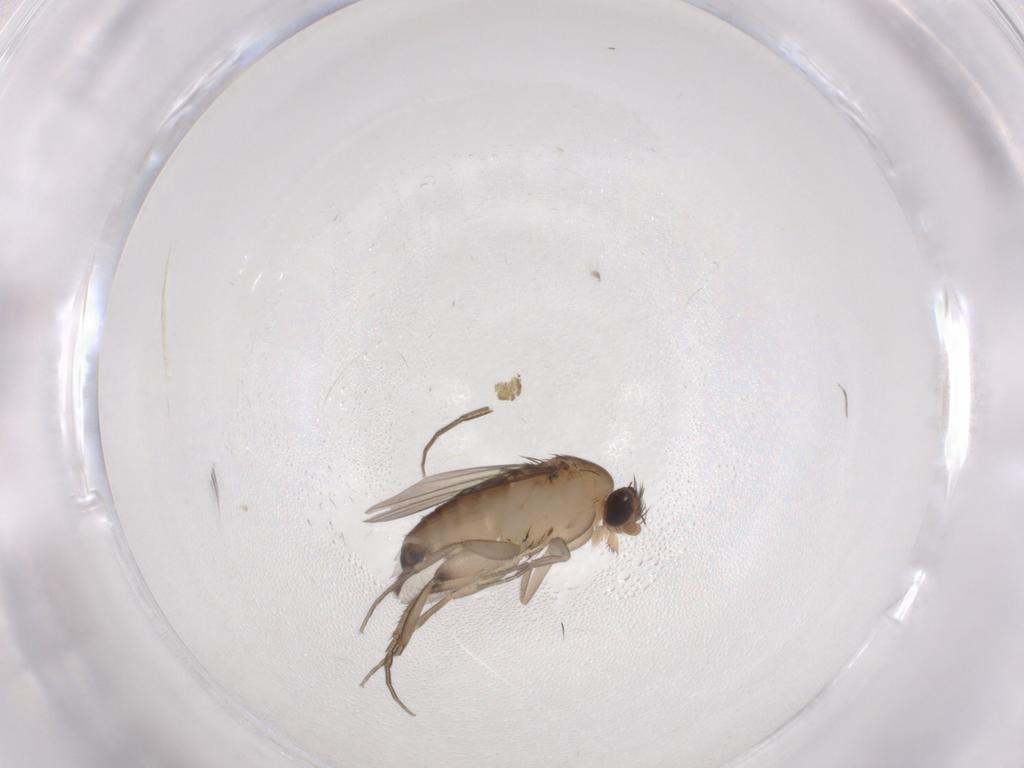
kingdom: Animalia
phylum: Arthropoda
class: Insecta
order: Diptera
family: Phoridae
